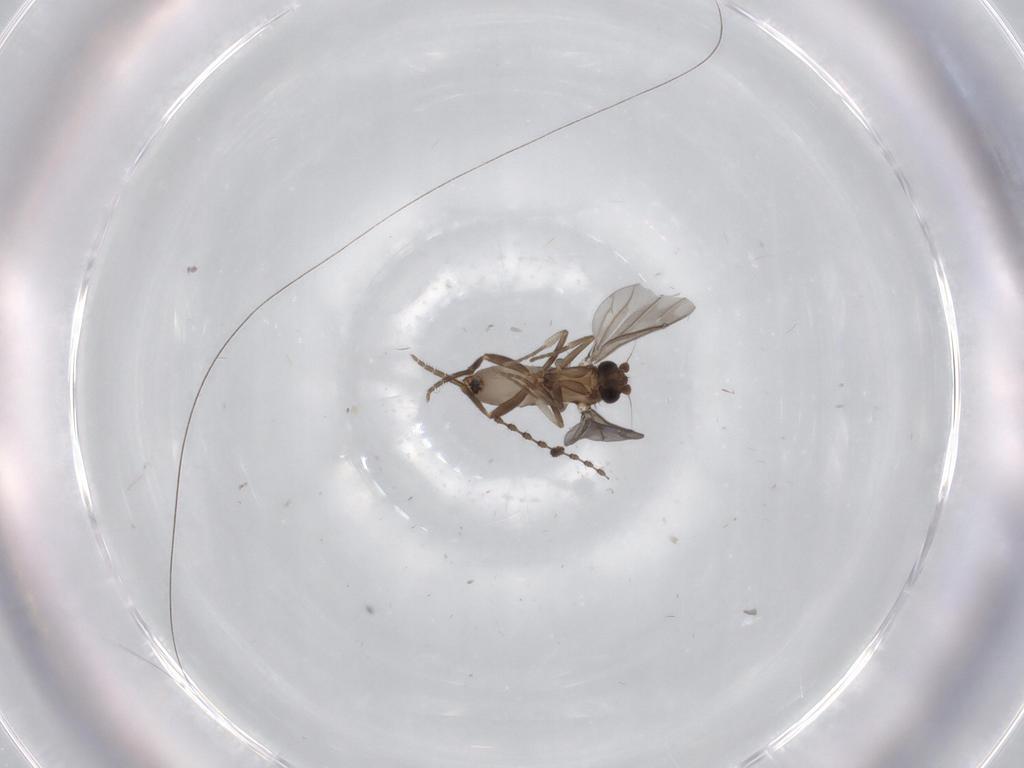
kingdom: Animalia
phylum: Arthropoda
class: Insecta
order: Diptera
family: Phoridae
